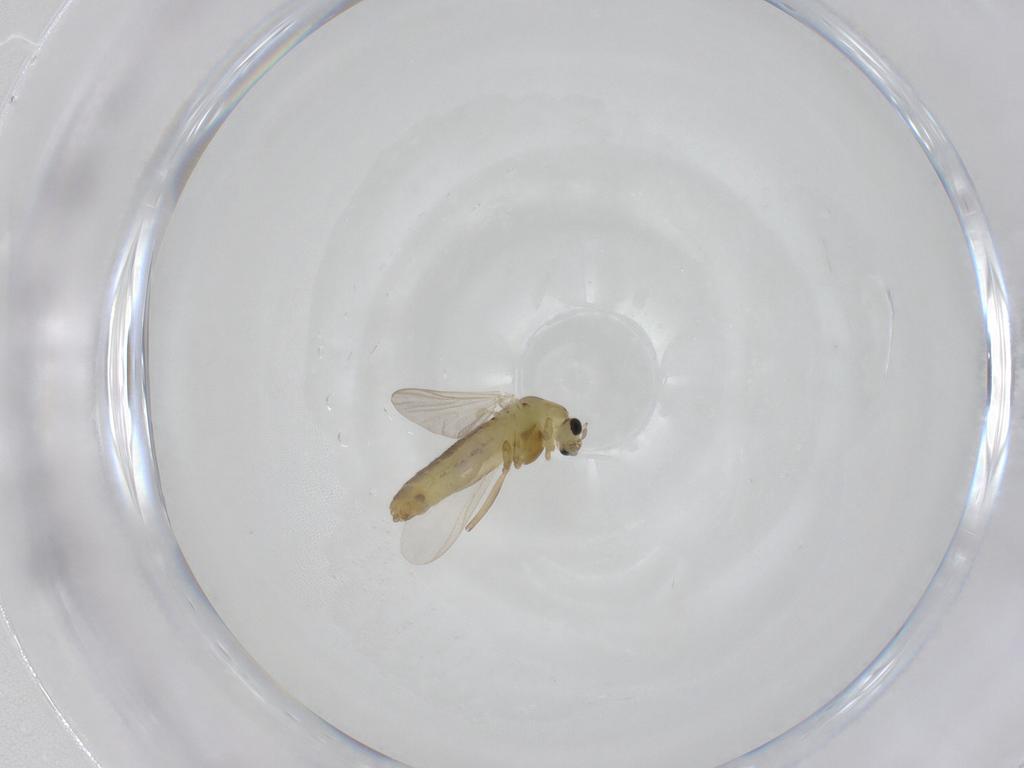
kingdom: Animalia
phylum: Arthropoda
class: Insecta
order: Diptera
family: Chironomidae
